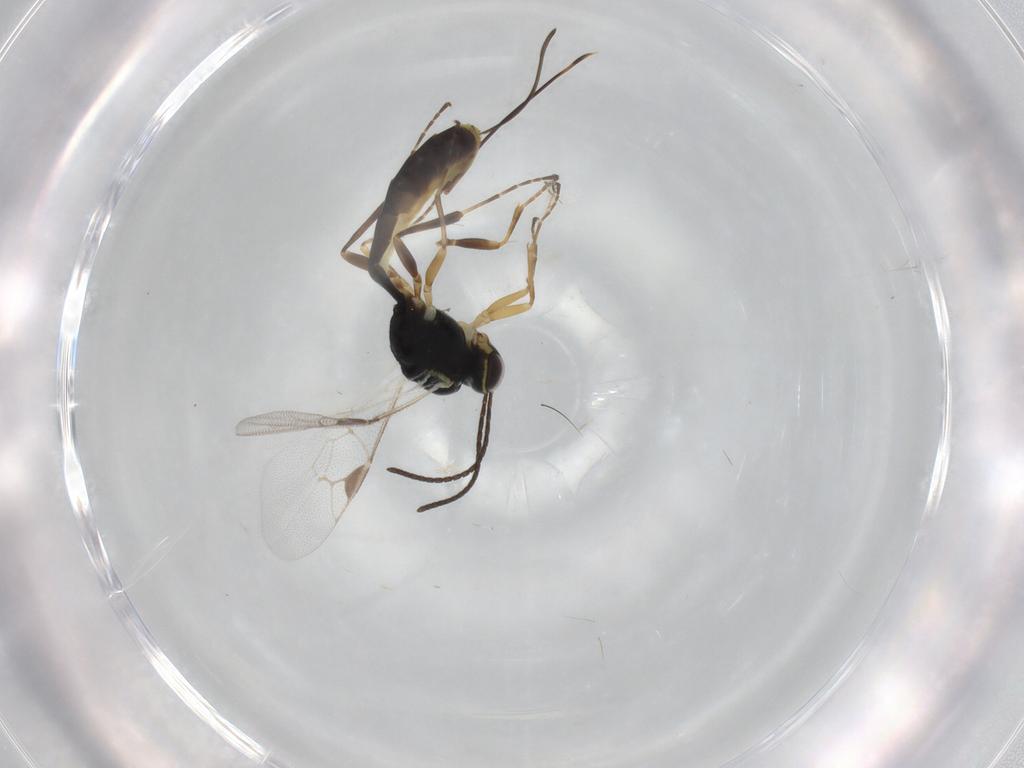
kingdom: Animalia
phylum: Arthropoda
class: Insecta
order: Hymenoptera
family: Ichneumonidae
